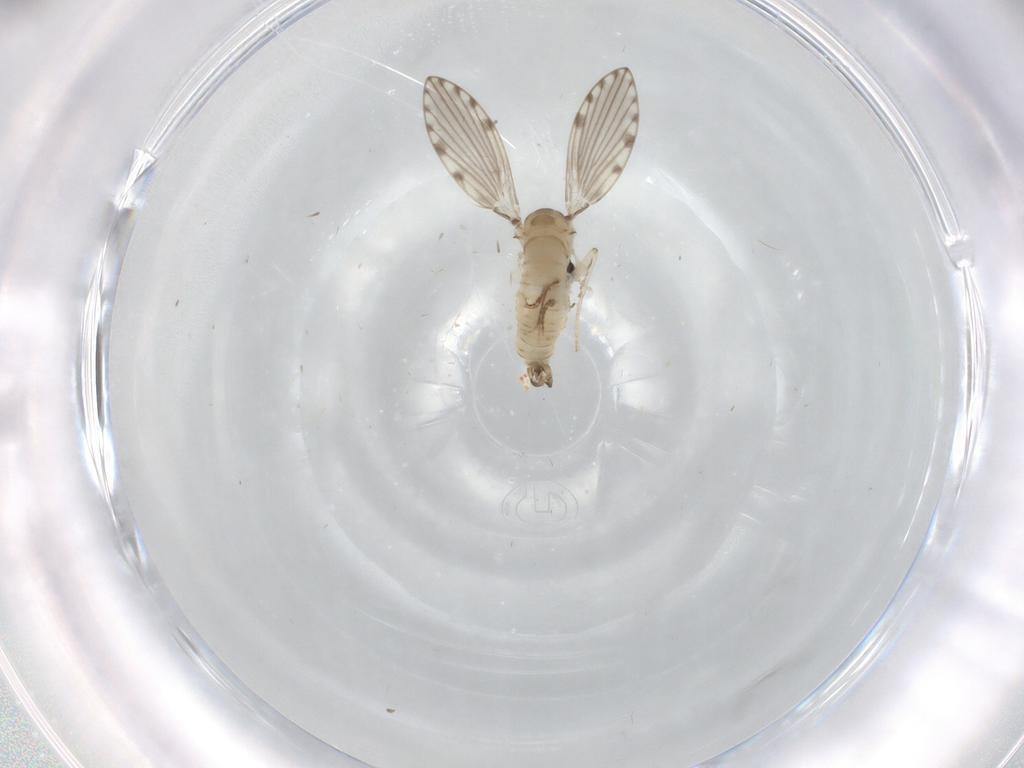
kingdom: Animalia
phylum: Arthropoda
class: Insecta
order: Diptera
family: Psychodidae
